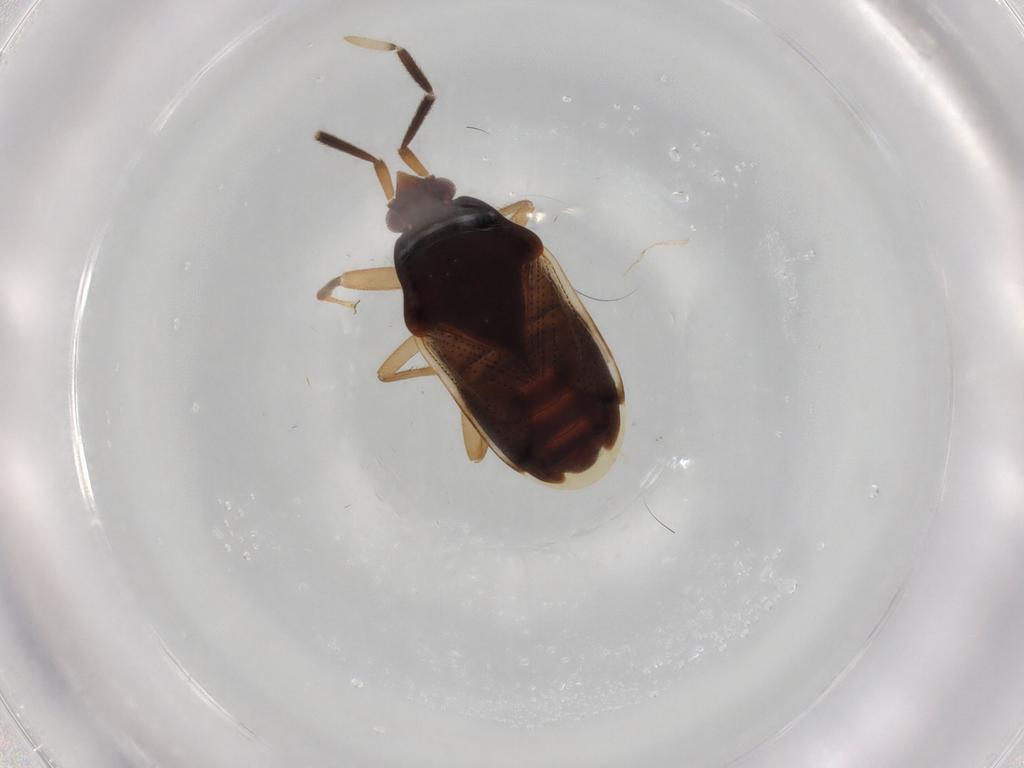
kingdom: Animalia
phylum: Arthropoda
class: Insecta
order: Hemiptera
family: Rhyparochromidae
